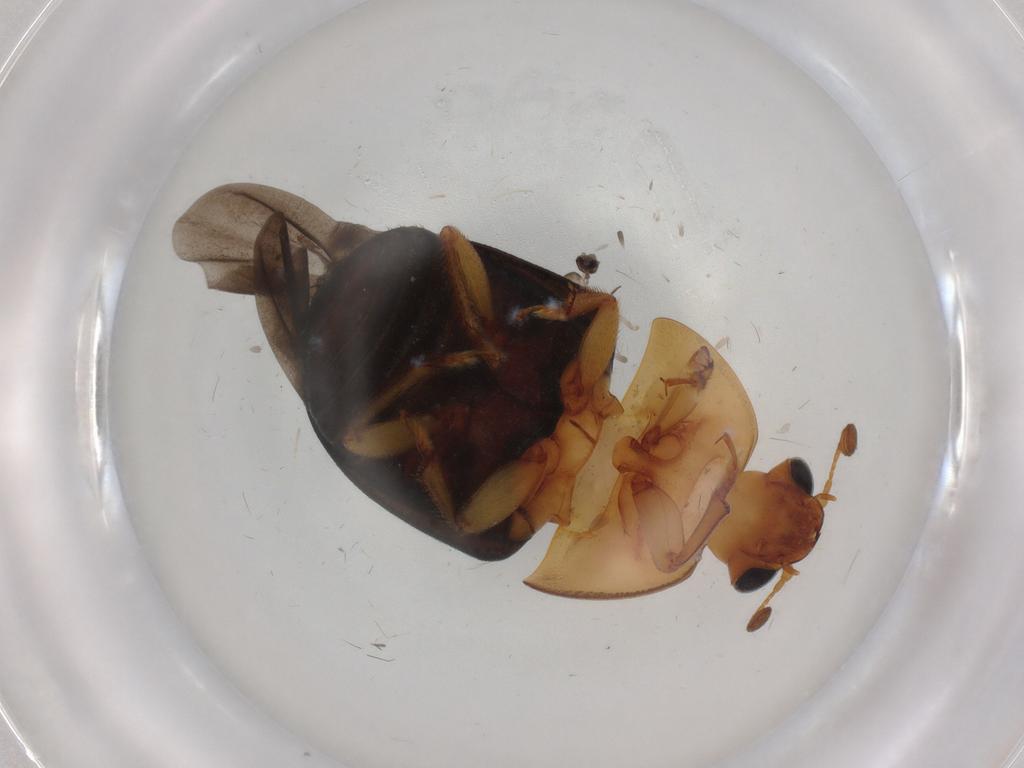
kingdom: Animalia
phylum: Arthropoda
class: Insecta
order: Coleoptera
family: Nitidulidae
